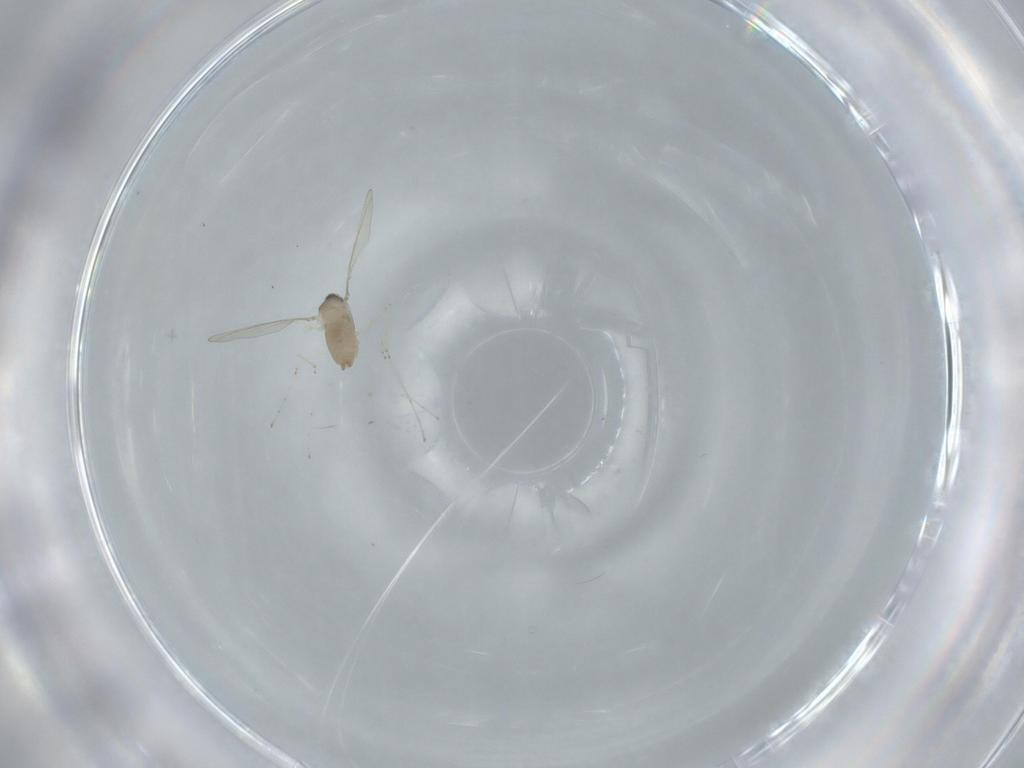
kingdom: Animalia
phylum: Arthropoda
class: Insecta
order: Diptera
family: Cecidomyiidae
